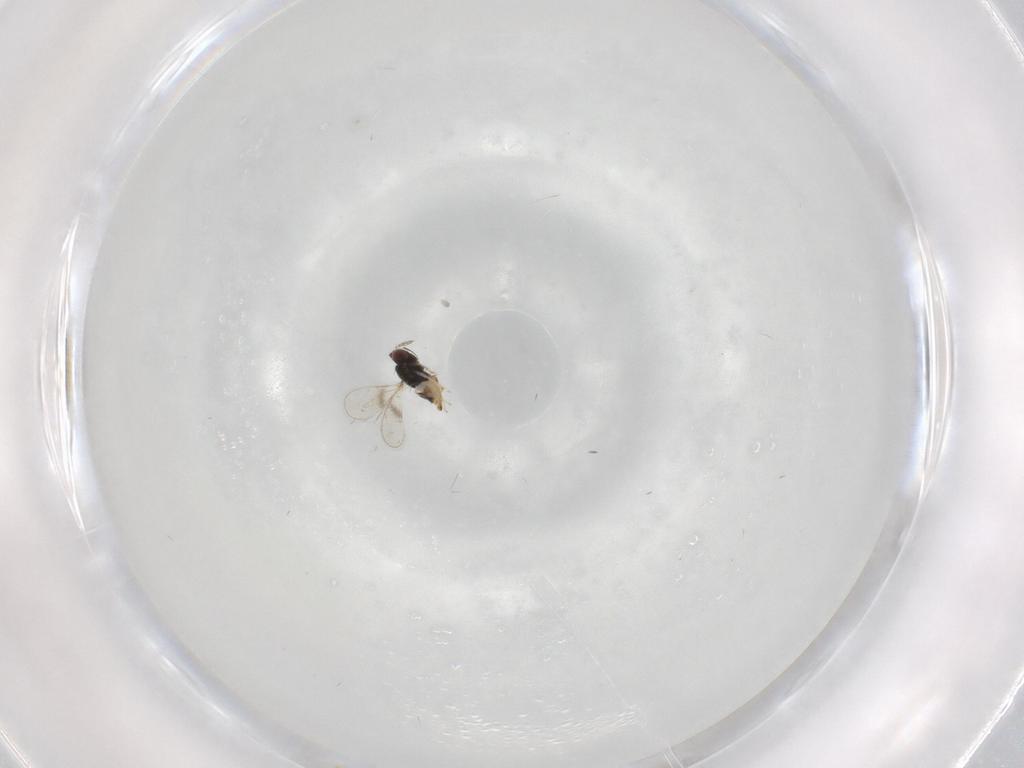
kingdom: Animalia
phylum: Arthropoda
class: Insecta
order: Hymenoptera
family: Eulophidae
